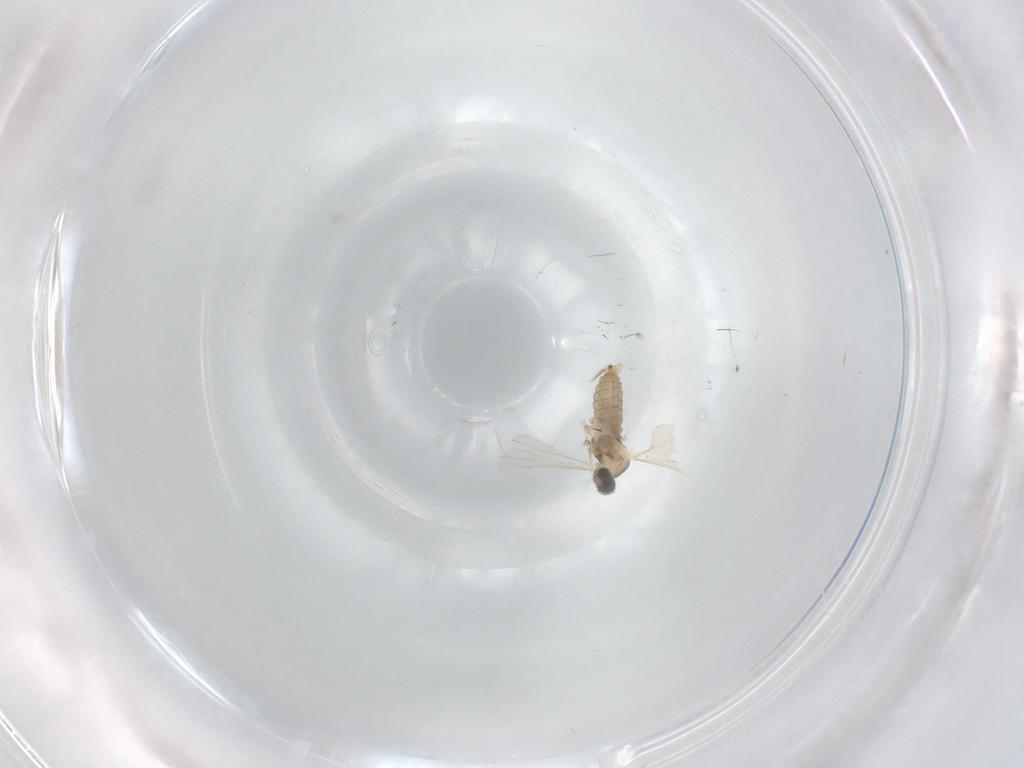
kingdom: Animalia
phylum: Arthropoda
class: Insecta
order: Diptera
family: Cecidomyiidae
